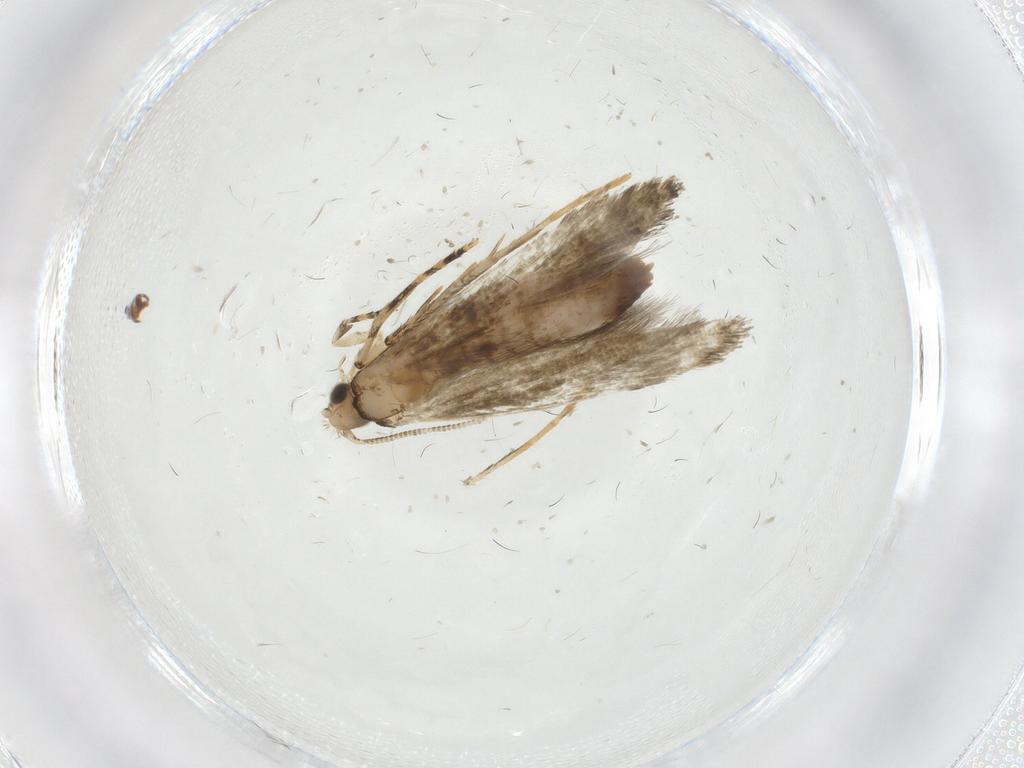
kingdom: Animalia
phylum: Arthropoda
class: Insecta
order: Lepidoptera
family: Meessiidae
